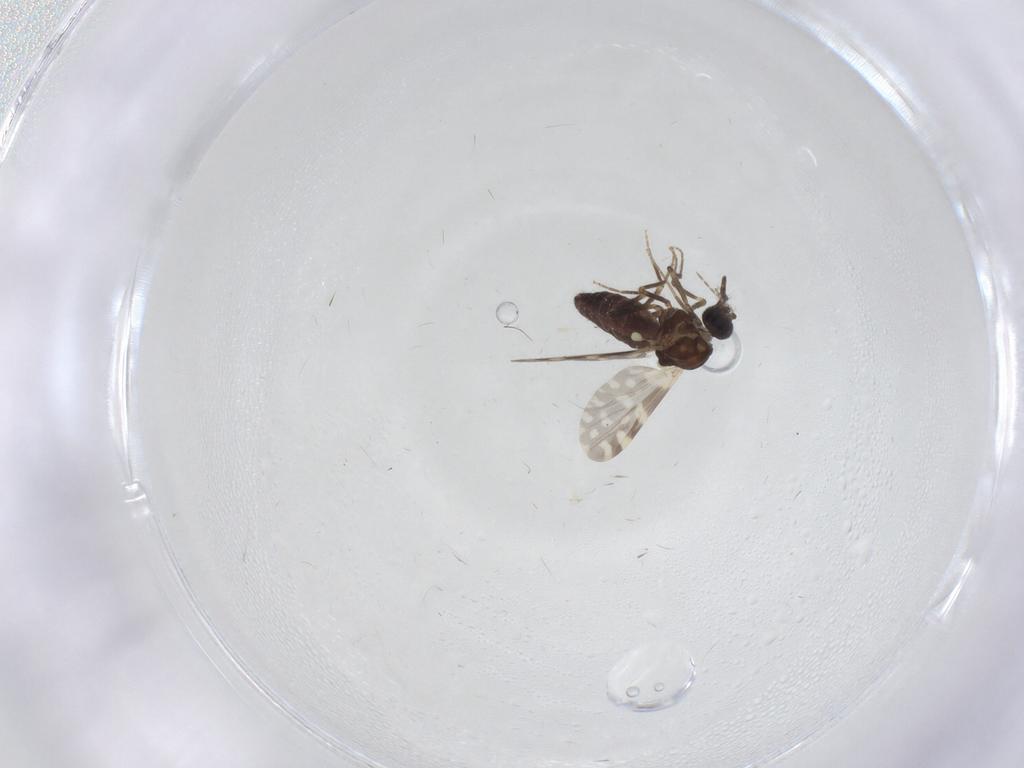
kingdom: Animalia
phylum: Arthropoda
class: Insecta
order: Diptera
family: Ceratopogonidae
